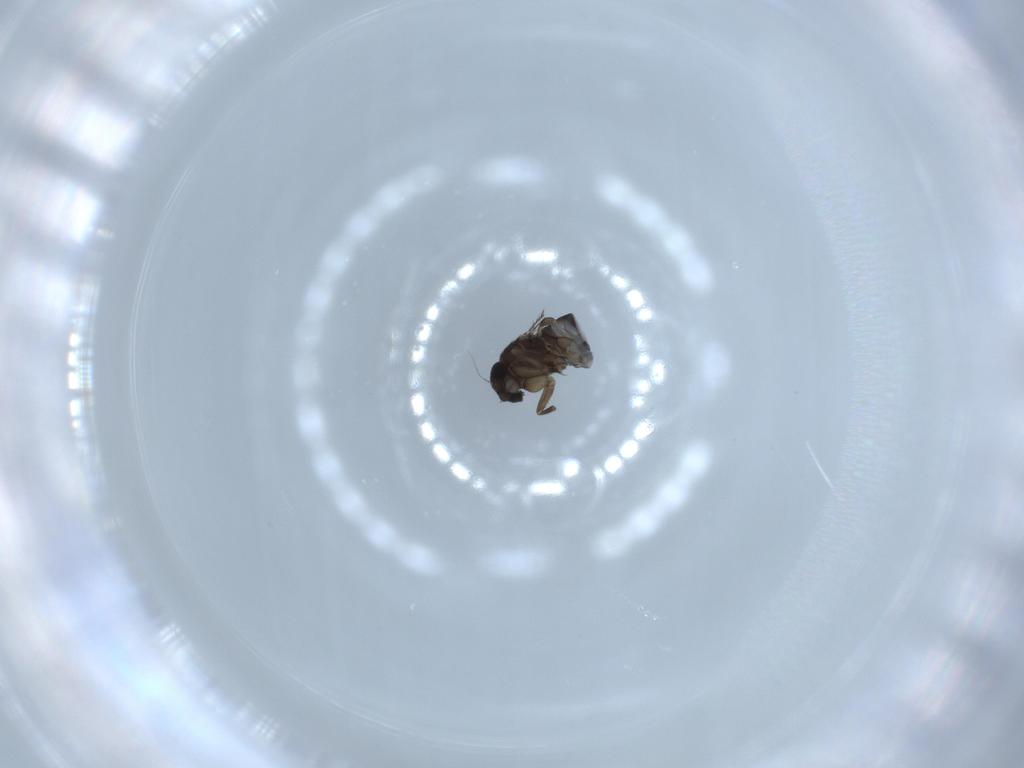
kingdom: Animalia
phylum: Arthropoda
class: Insecta
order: Diptera
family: Phoridae
